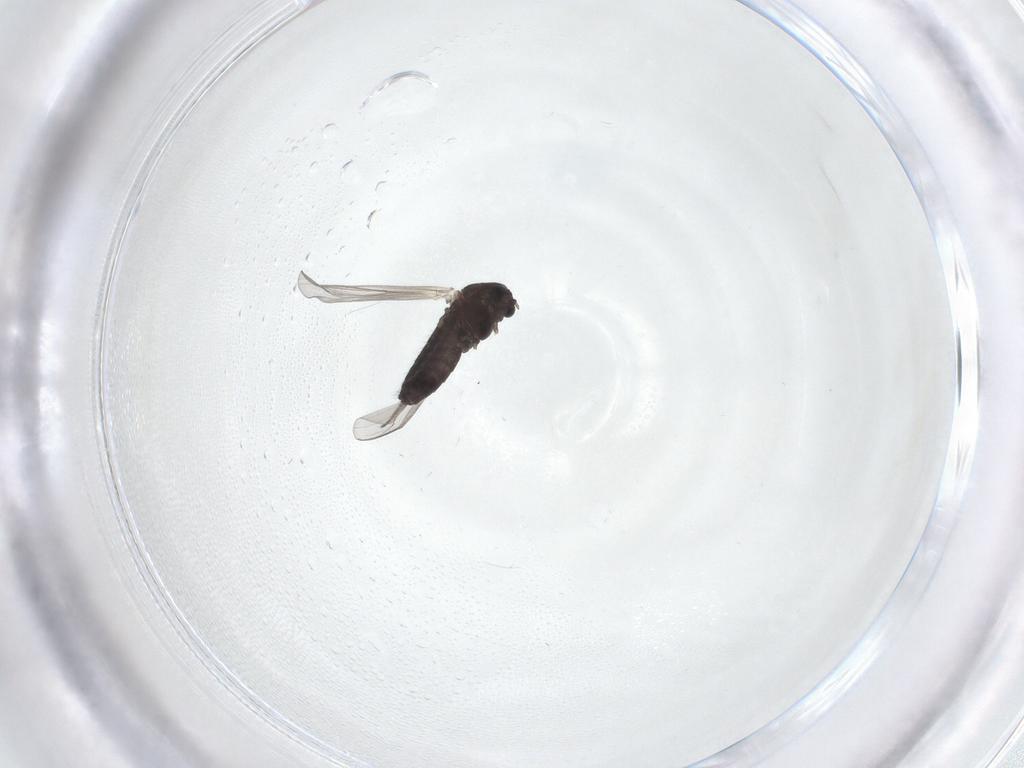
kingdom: Animalia
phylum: Arthropoda
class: Insecta
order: Diptera
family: Chironomidae
